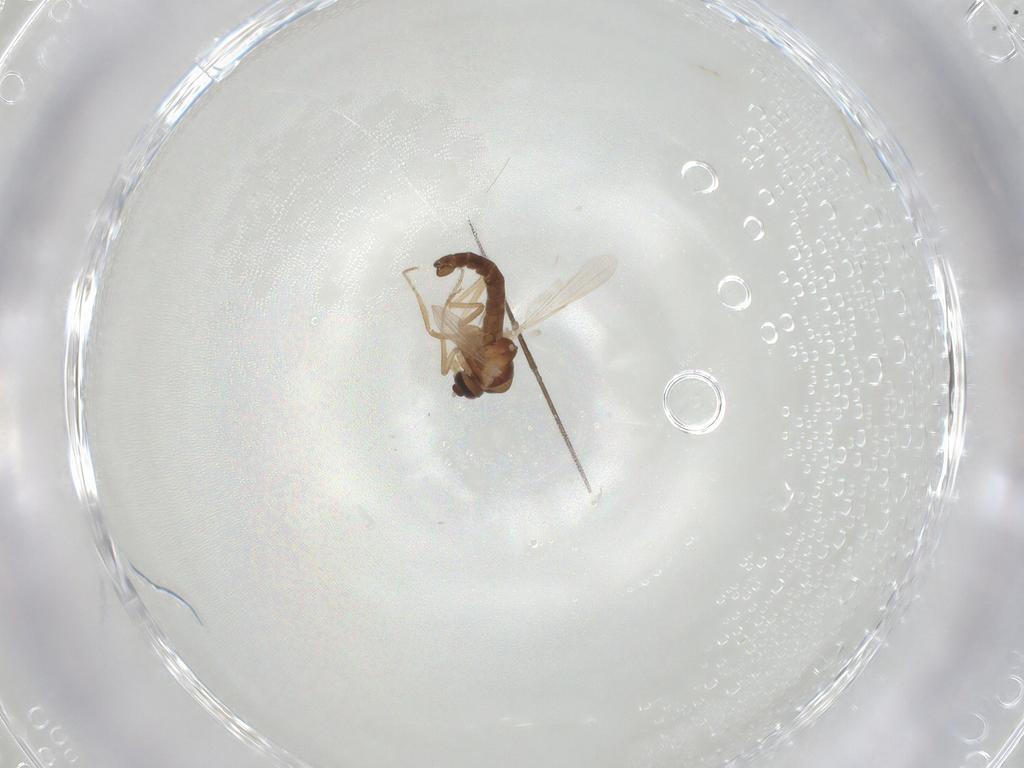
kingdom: Animalia
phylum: Arthropoda
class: Insecta
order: Diptera
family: Ceratopogonidae
